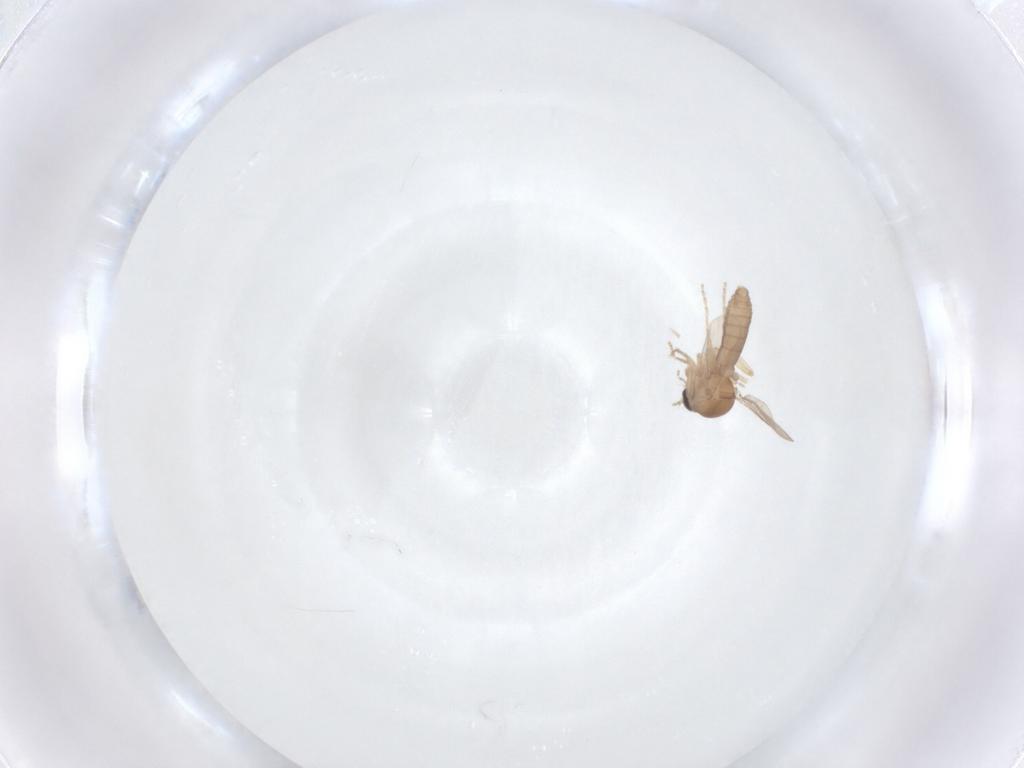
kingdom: Animalia
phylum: Arthropoda
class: Insecta
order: Diptera
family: Ceratopogonidae
